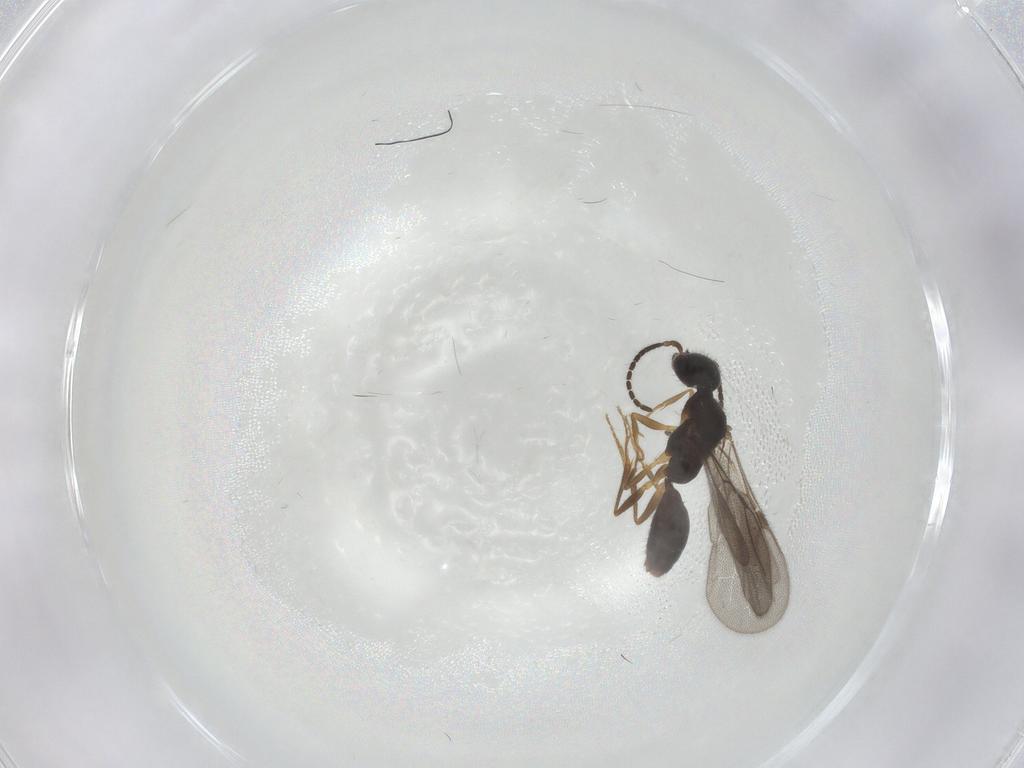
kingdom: Animalia
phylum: Arthropoda
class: Insecta
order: Hymenoptera
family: Bethylidae
